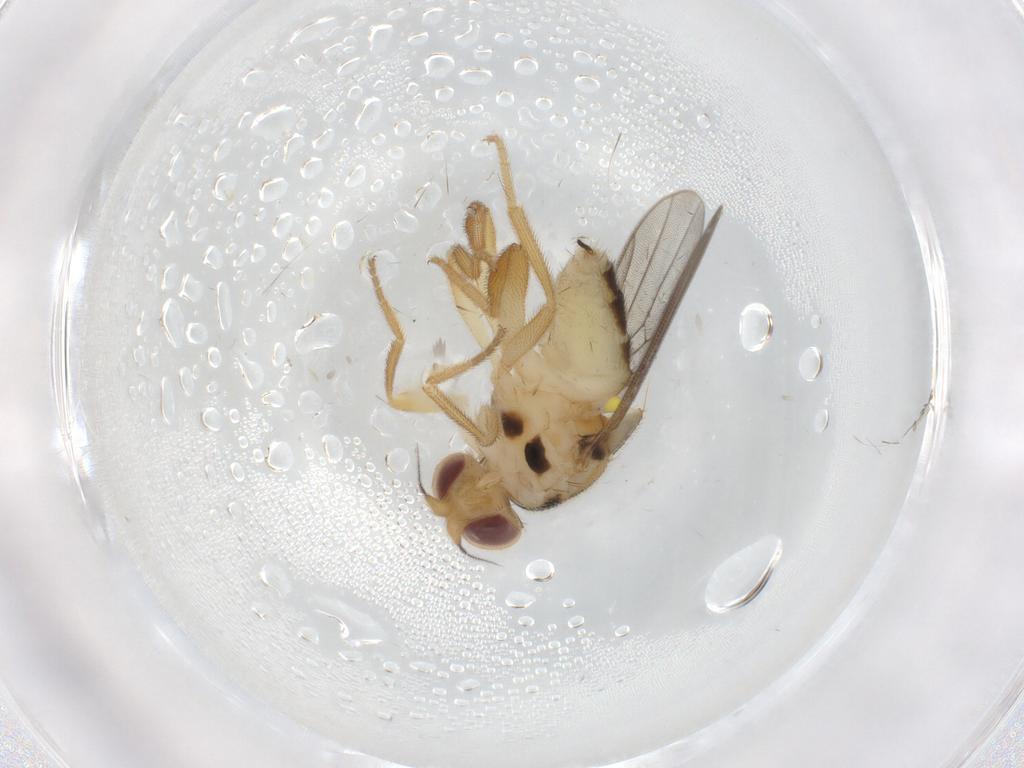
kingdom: Animalia
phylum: Arthropoda
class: Insecta
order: Diptera
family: Chloropidae
